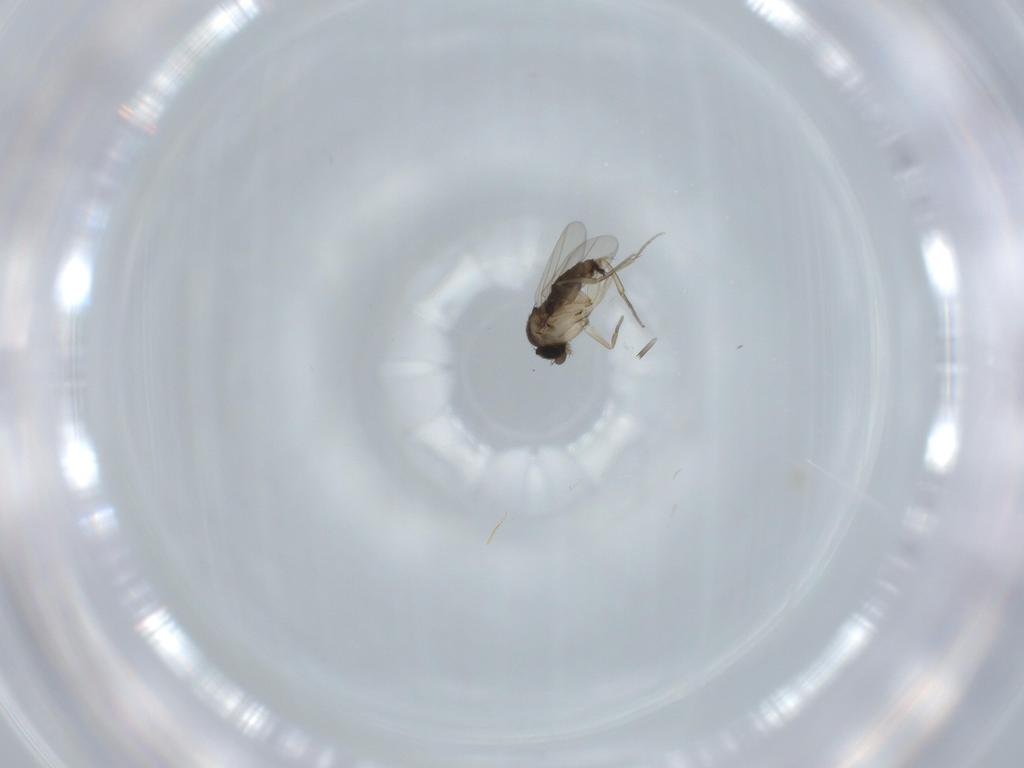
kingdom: Animalia
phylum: Arthropoda
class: Insecta
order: Diptera
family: Phoridae
